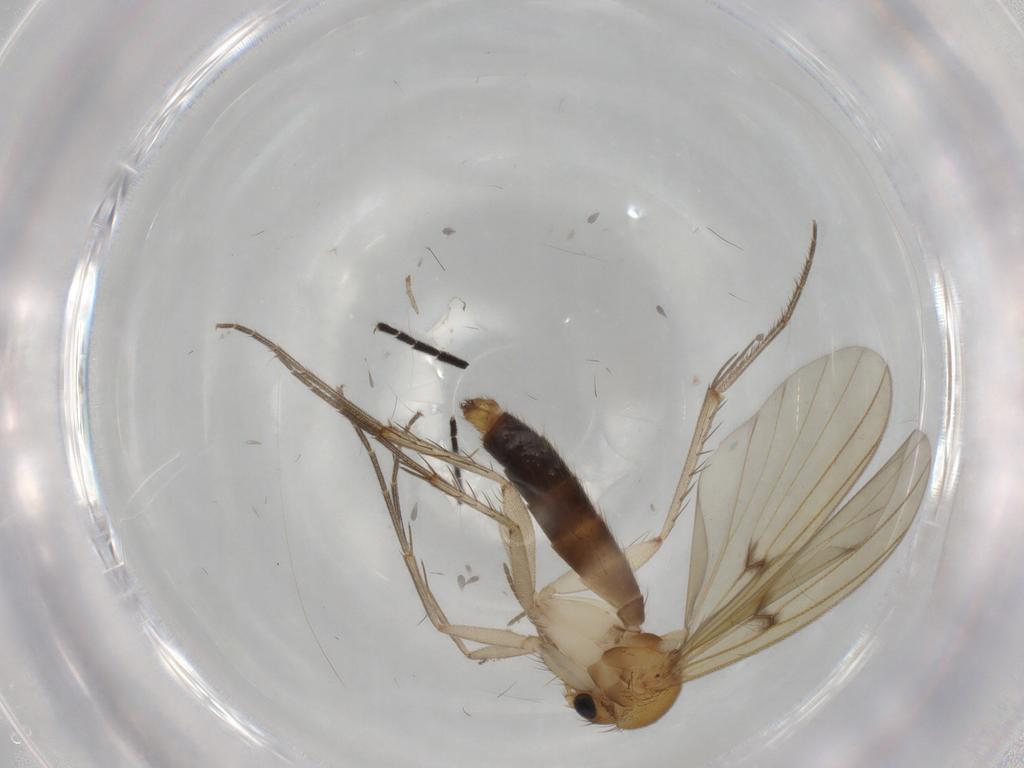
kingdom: Animalia
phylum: Arthropoda
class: Insecta
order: Diptera
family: Mycetophilidae
